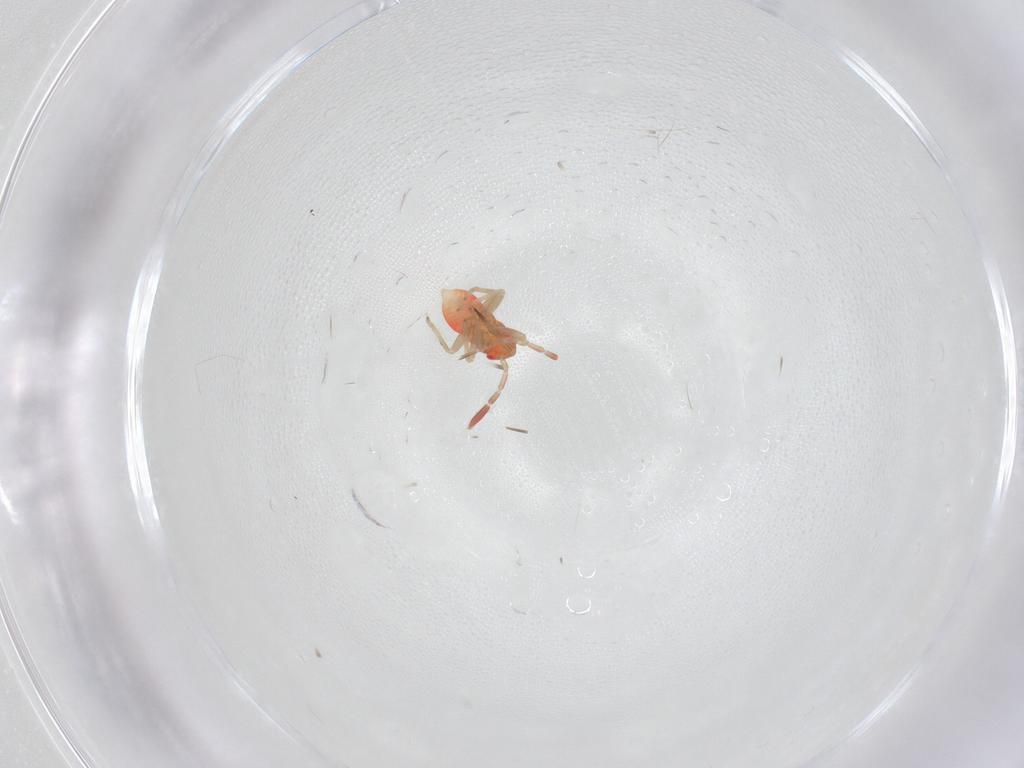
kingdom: Animalia
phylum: Arthropoda
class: Insecta
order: Hemiptera
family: Miridae
